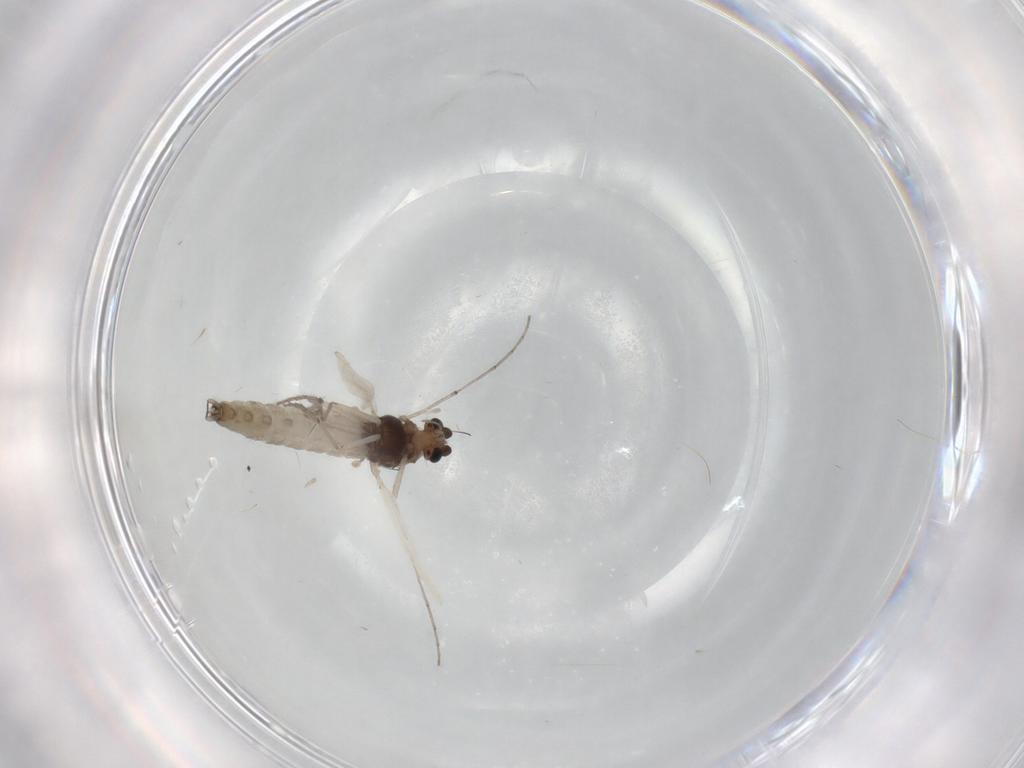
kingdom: Animalia
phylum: Arthropoda
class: Insecta
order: Diptera
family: Chironomidae
